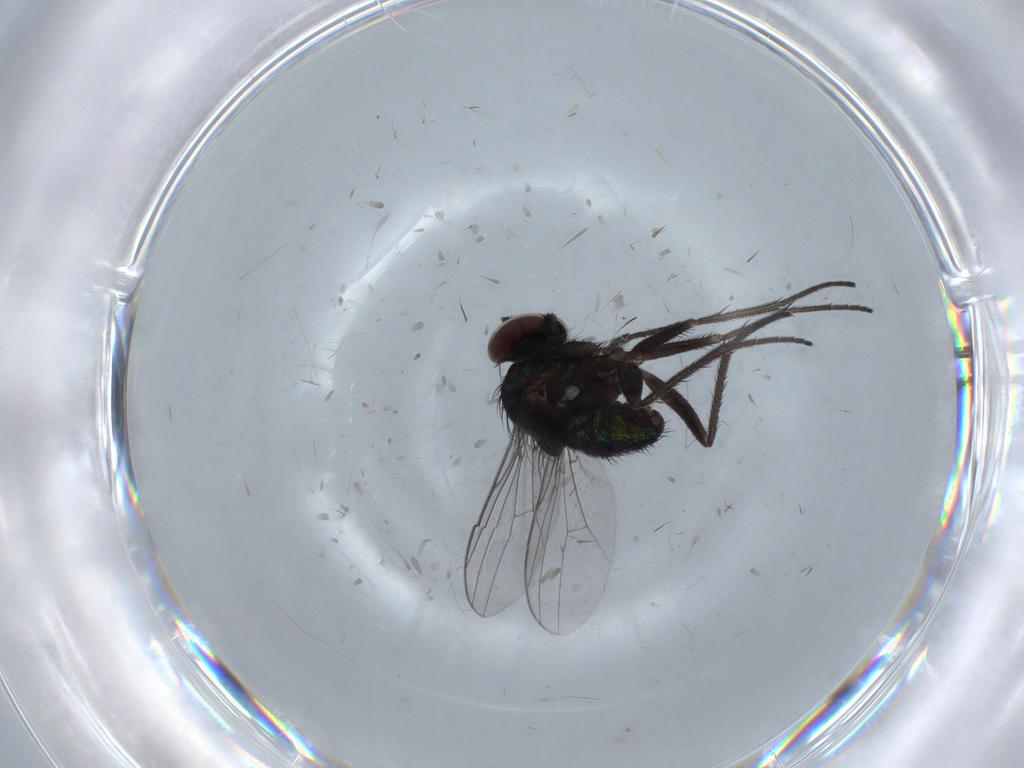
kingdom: Animalia
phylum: Arthropoda
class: Insecta
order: Diptera
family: Dolichopodidae
